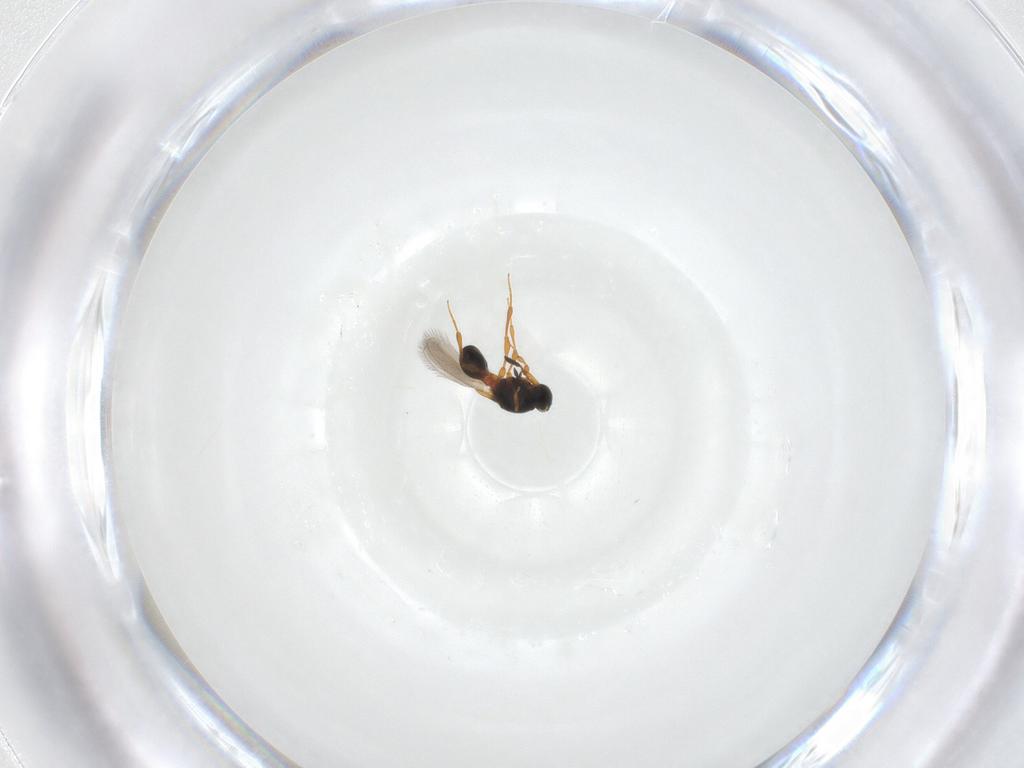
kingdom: Animalia
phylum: Arthropoda
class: Insecta
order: Hymenoptera
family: Platygastridae
